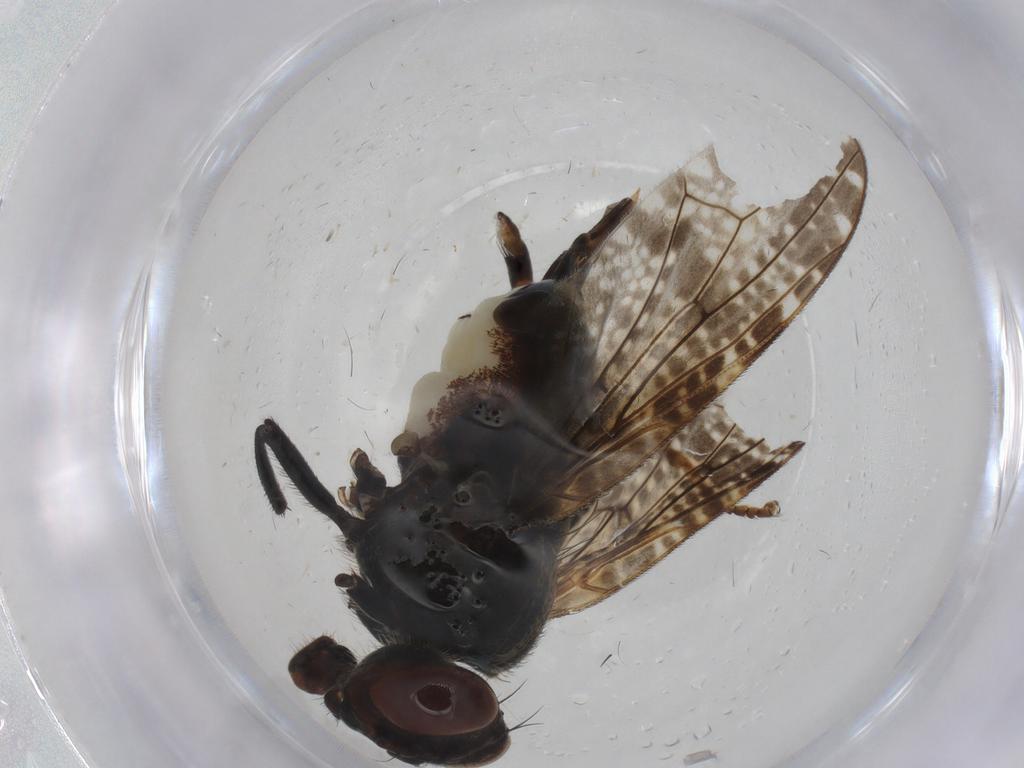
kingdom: Animalia
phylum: Arthropoda
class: Insecta
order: Diptera
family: Platystomatidae
